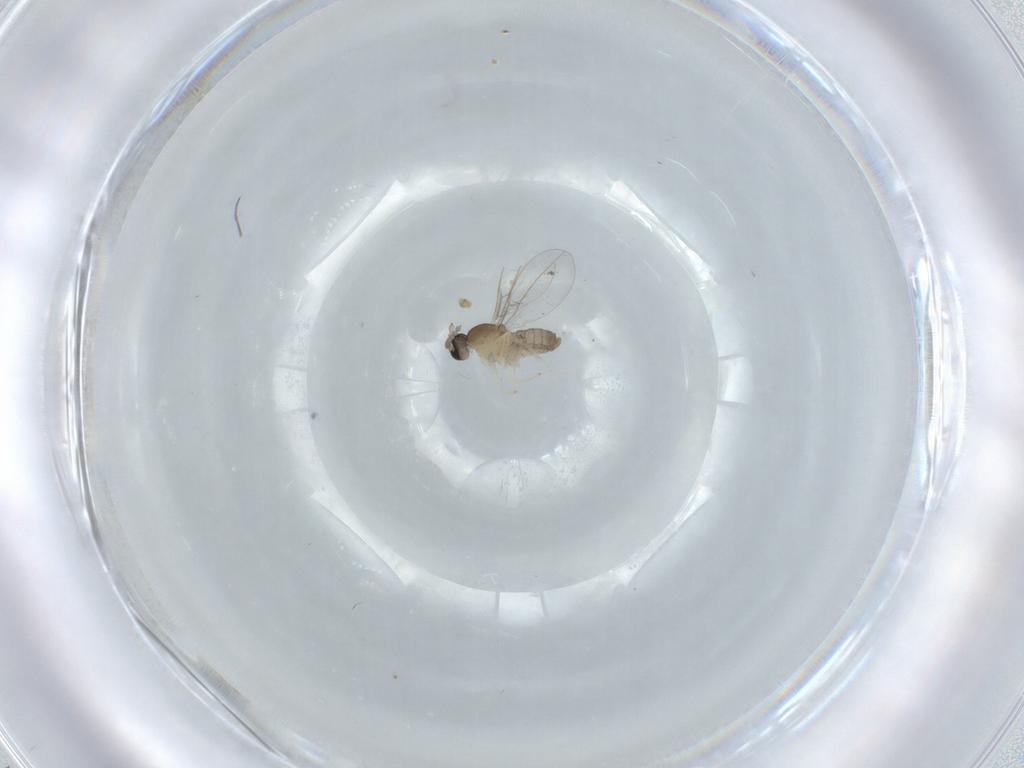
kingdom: Animalia
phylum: Arthropoda
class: Insecta
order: Diptera
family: Cecidomyiidae
